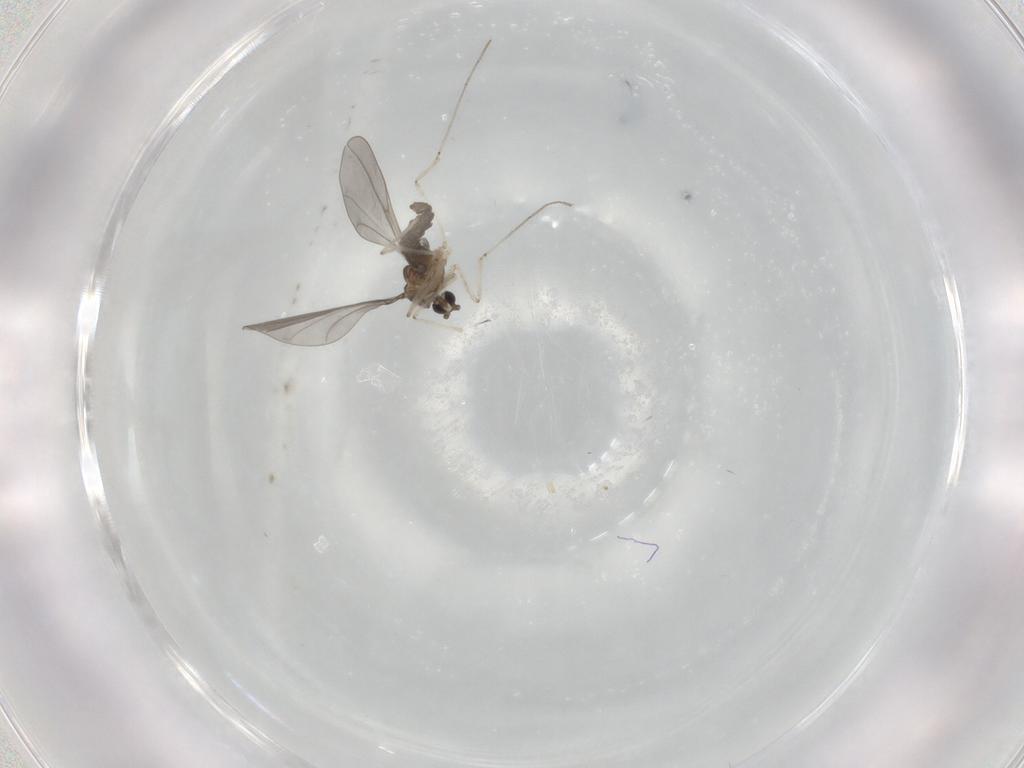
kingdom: Animalia
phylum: Arthropoda
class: Insecta
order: Diptera
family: Cecidomyiidae
